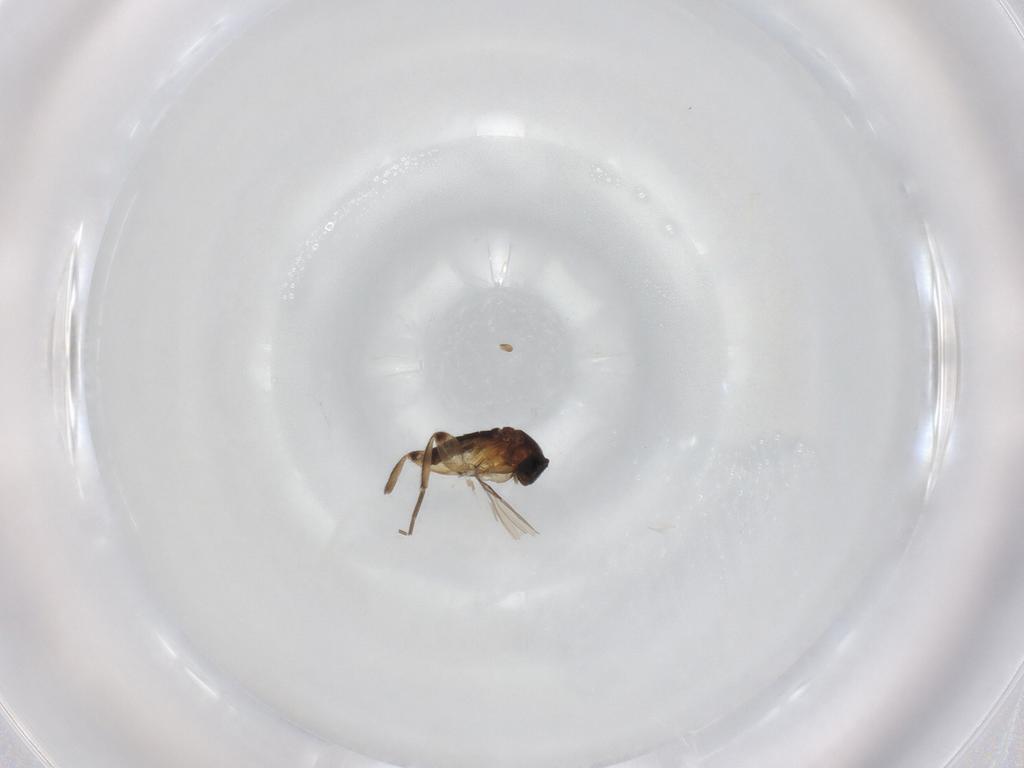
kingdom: Animalia
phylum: Arthropoda
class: Insecta
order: Diptera
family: Phoridae
